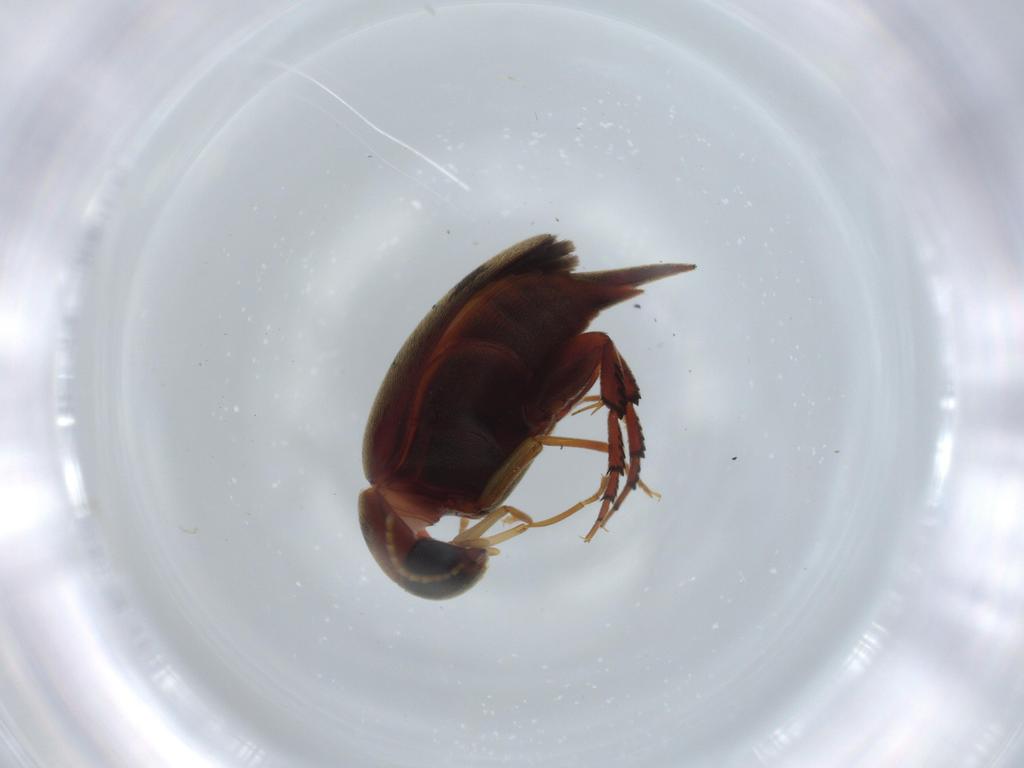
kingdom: Animalia
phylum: Arthropoda
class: Insecta
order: Coleoptera
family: Mordellidae
